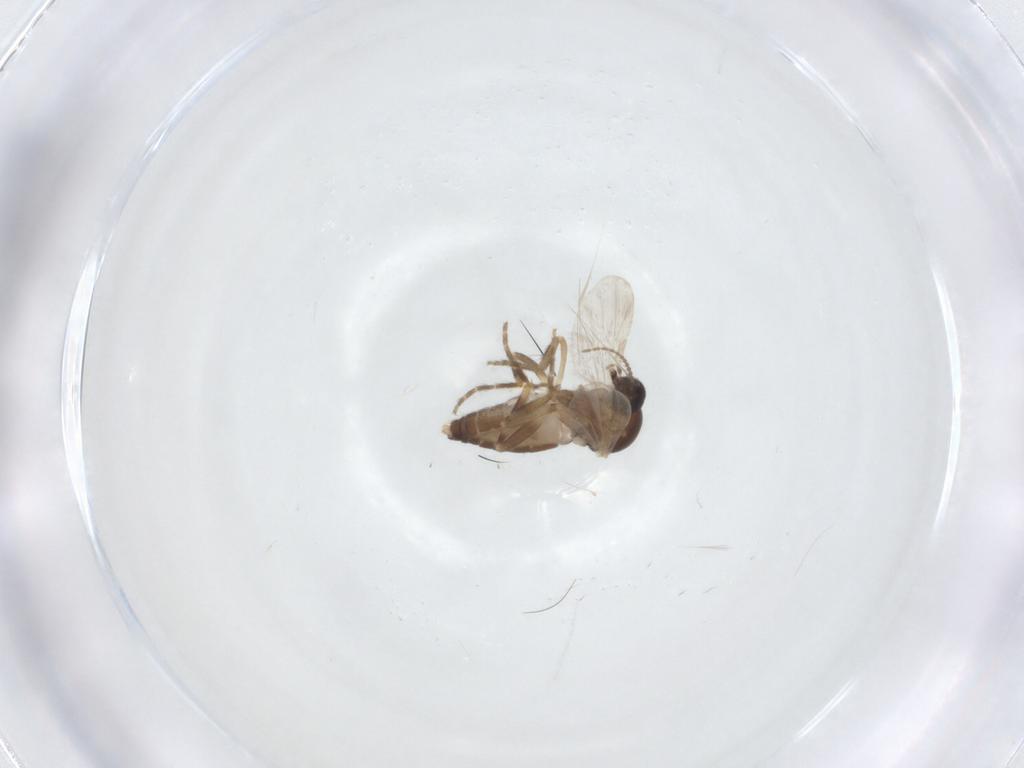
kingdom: Animalia
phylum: Arthropoda
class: Insecta
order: Diptera
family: Ceratopogonidae
